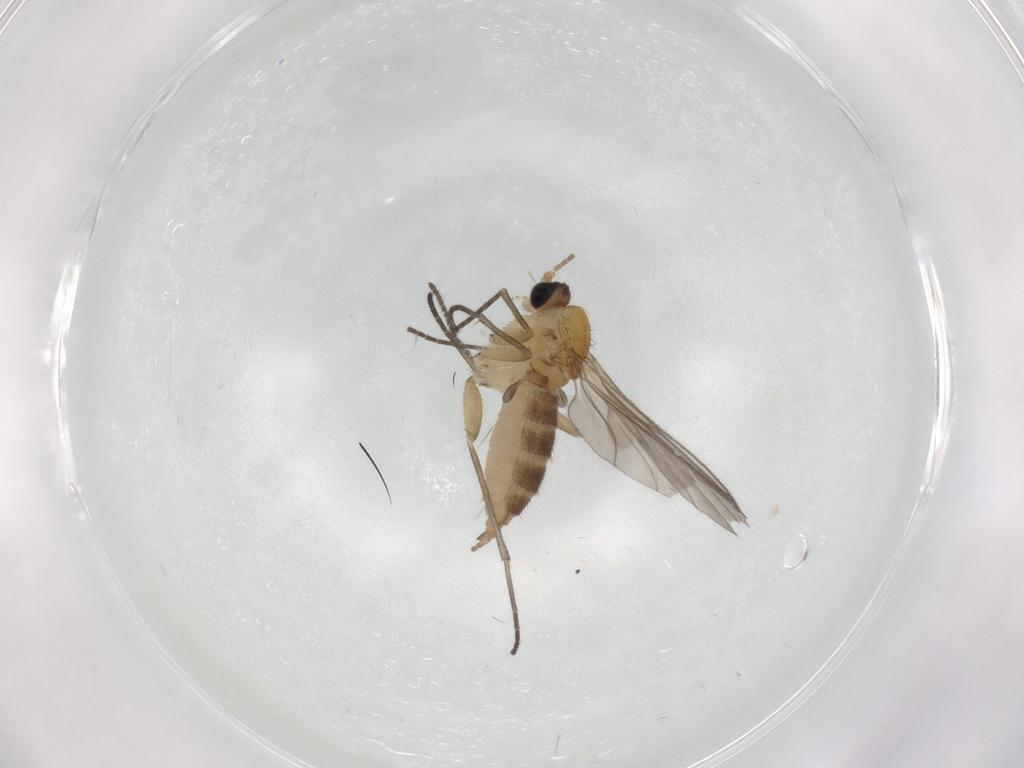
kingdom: Animalia
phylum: Arthropoda
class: Insecta
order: Diptera
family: Chironomidae
